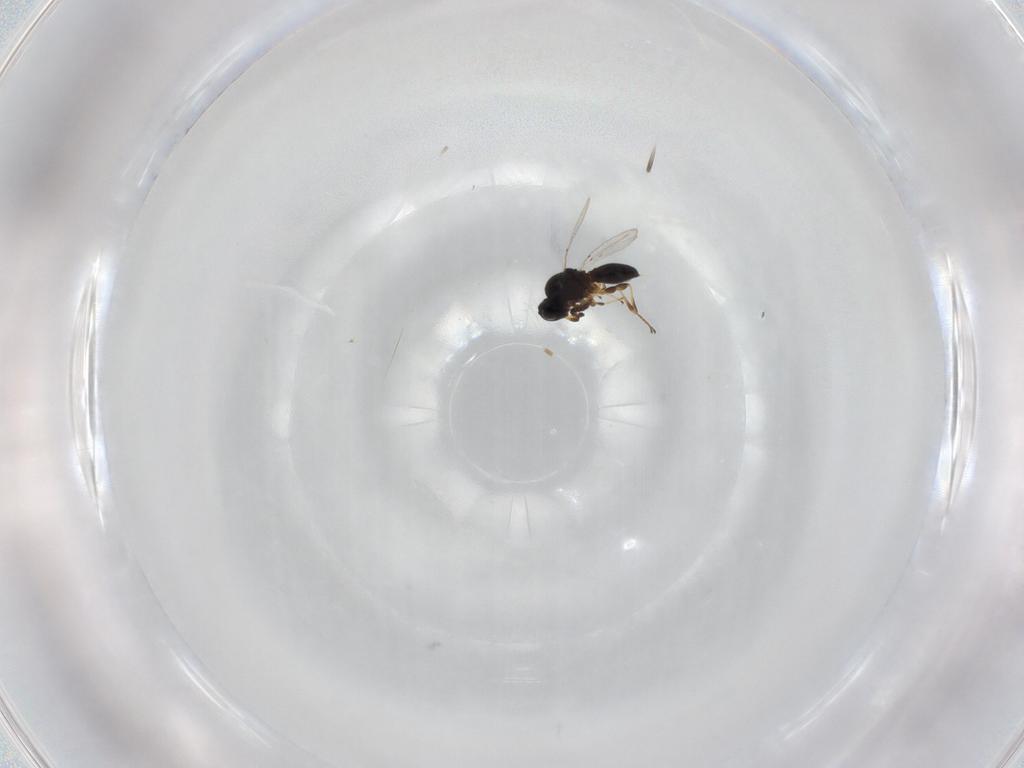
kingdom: Animalia
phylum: Arthropoda
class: Insecta
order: Hymenoptera
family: Platygastridae
